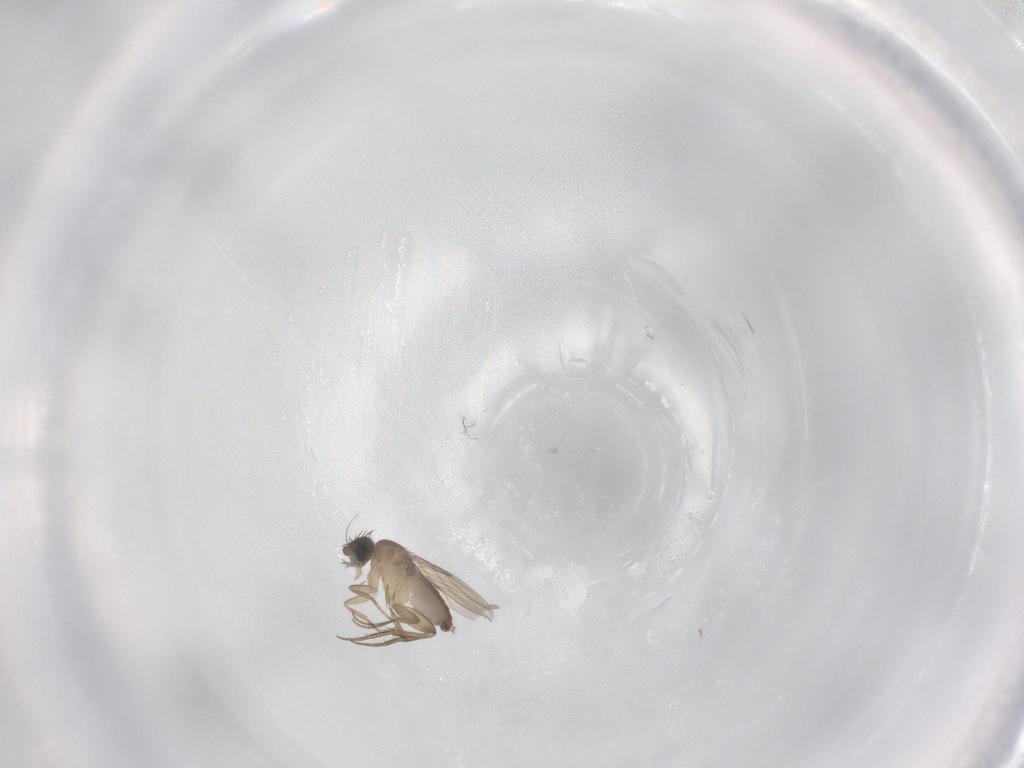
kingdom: Animalia
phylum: Arthropoda
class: Insecta
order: Diptera
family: Phoridae
